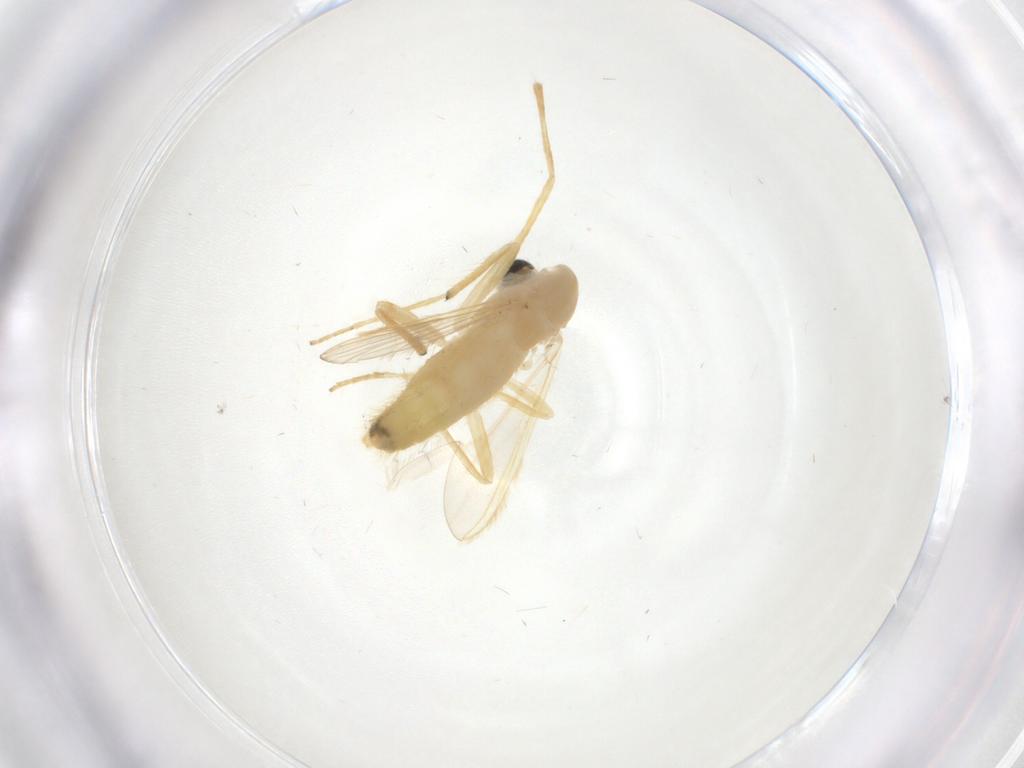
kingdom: Animalia
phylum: Arthropoda
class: Insecta
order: Diptera
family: Chironomidae
